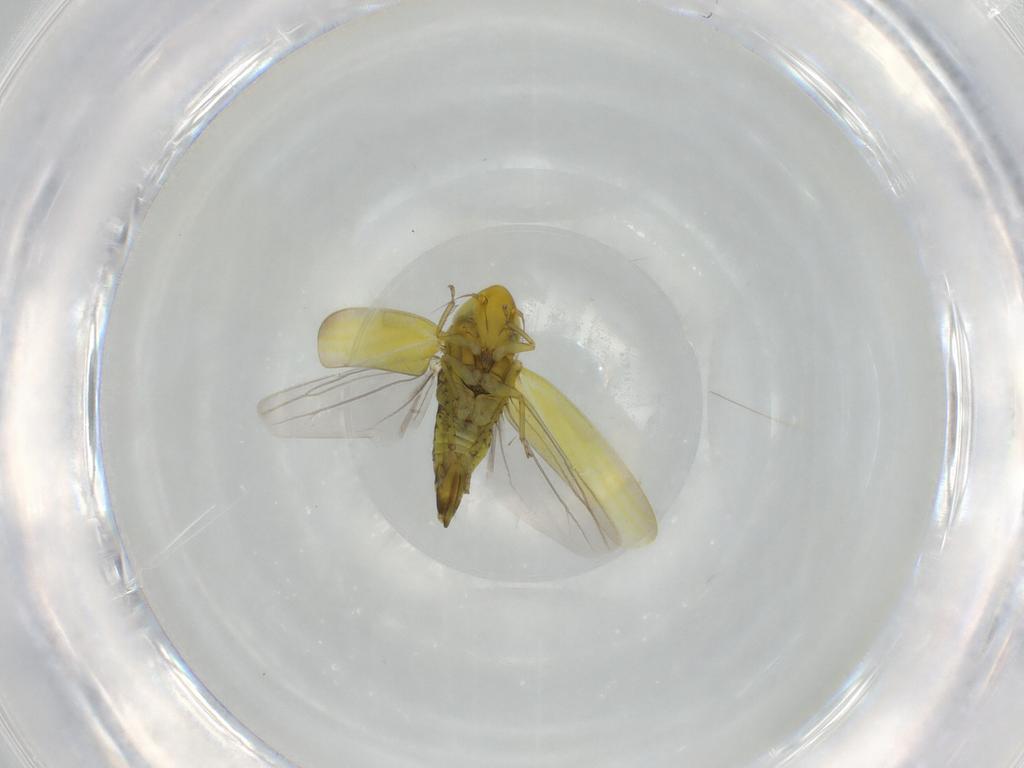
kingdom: Animalia
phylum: Arthropoda
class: Insecta
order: Hemiptera
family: Cicadellidae
